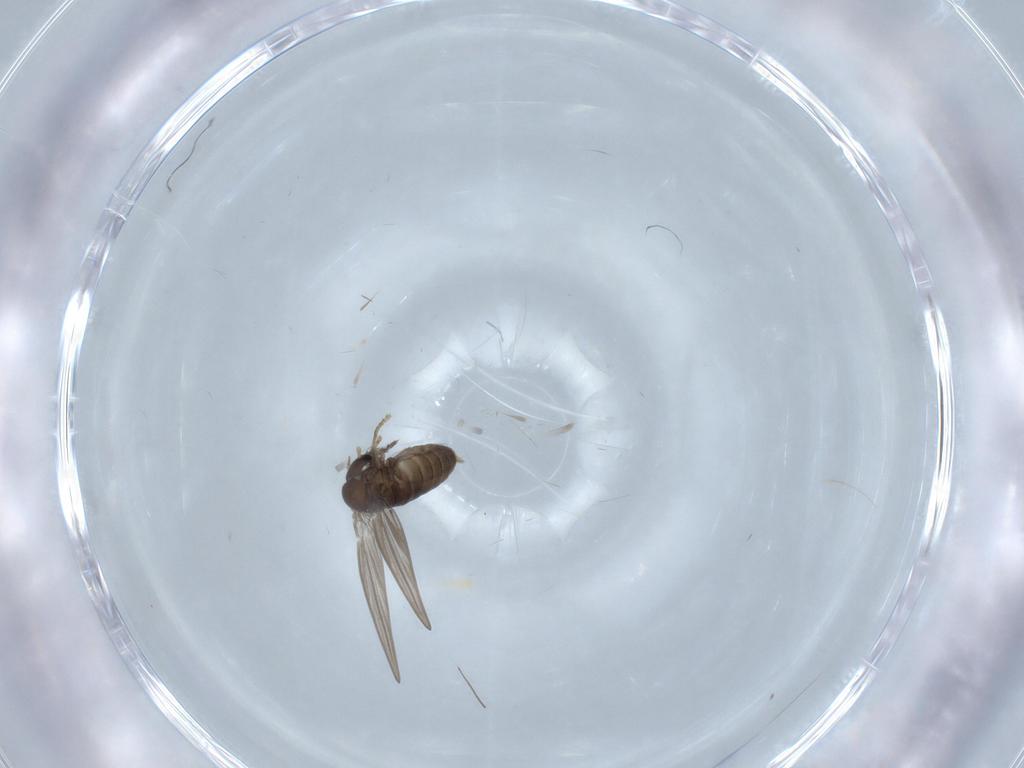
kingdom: Animalia
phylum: Arthropoda
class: Insecta
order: Diptera
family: Psychodidae
